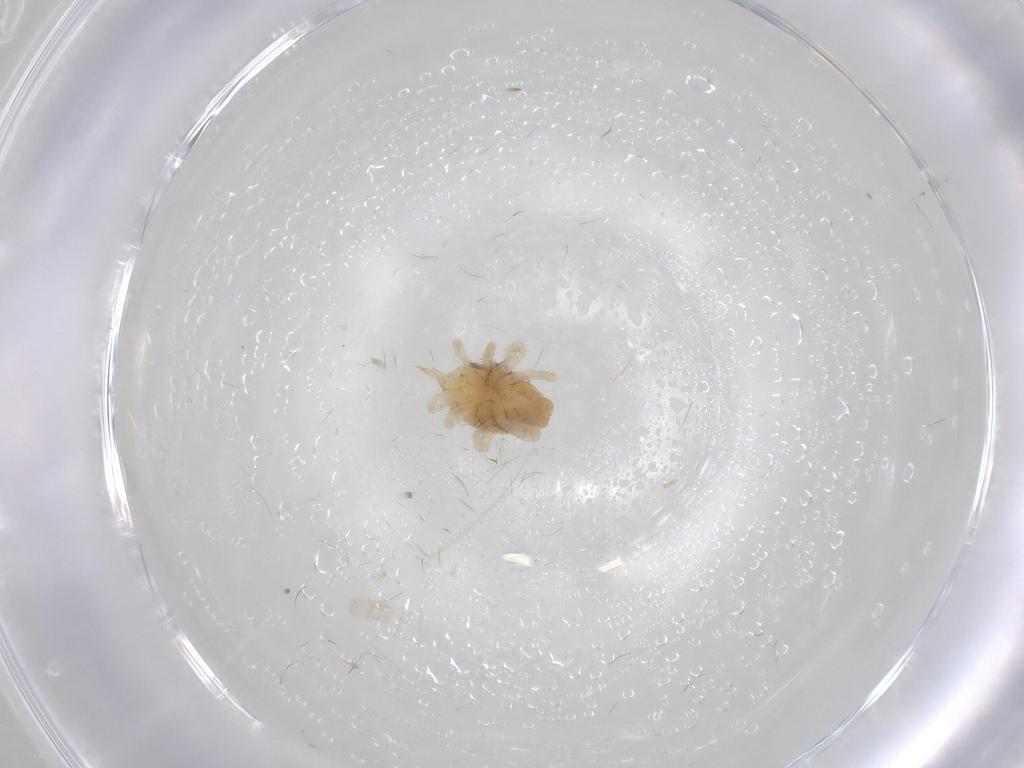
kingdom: Animalia
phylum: Arthropoda
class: Arachnida
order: Trombidiformes
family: Bdellidae
